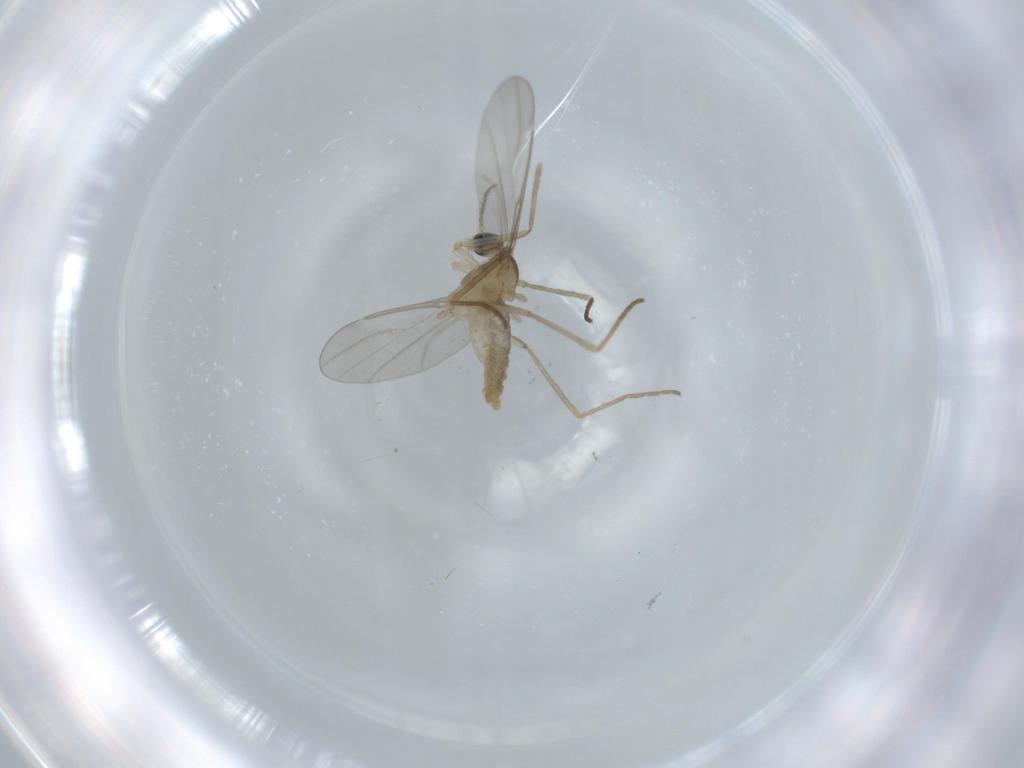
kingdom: Animalia
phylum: Arthropoda
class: Insecta
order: Diptera
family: Cecidomyiidae
